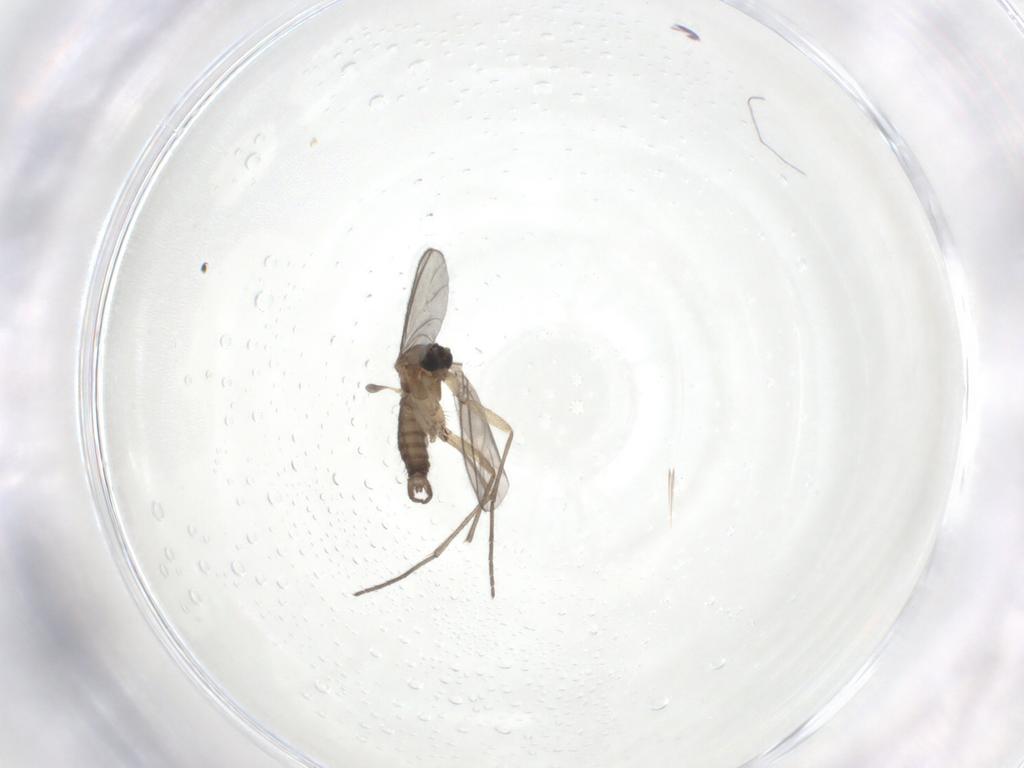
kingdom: Animalia
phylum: Arthropoda
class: Insecta
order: Diptera
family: Sciaridae
